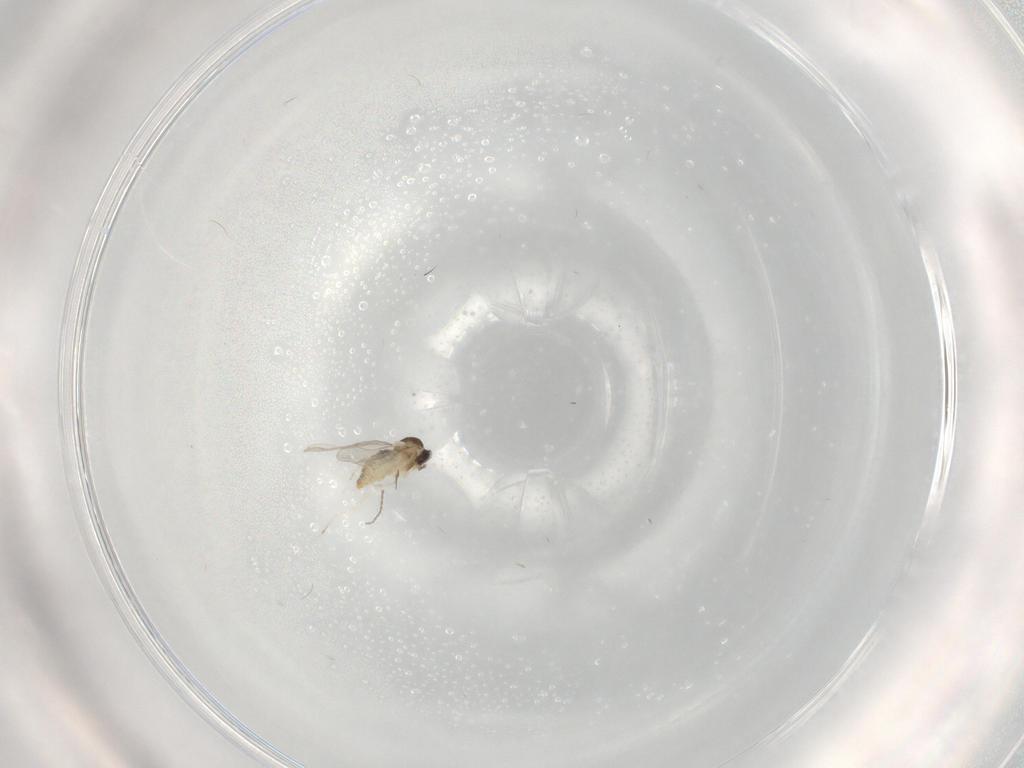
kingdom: Animalia
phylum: Arthropoda
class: Insecta
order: Diptera
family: Cecidomyiidae
